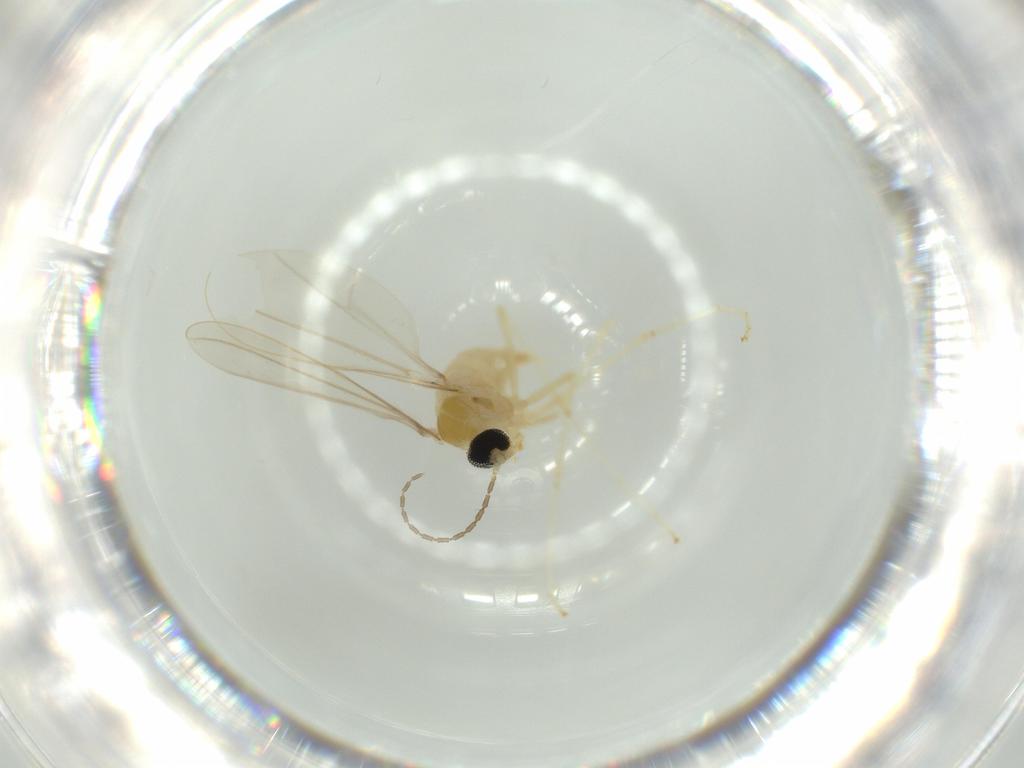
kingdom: Animalia
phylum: Arthropoda
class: Insecta
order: Diptera
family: Cecidomyiidae
